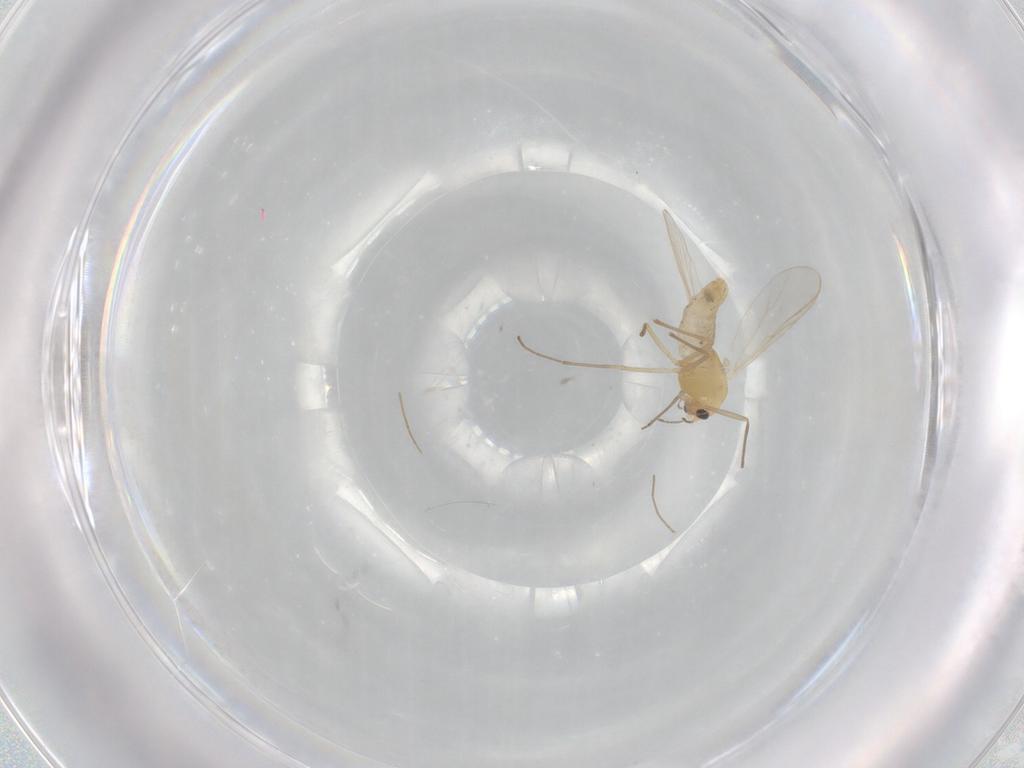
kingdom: Animalia
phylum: Arthropoda
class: Insecta
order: Diptera
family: Chironomidae
